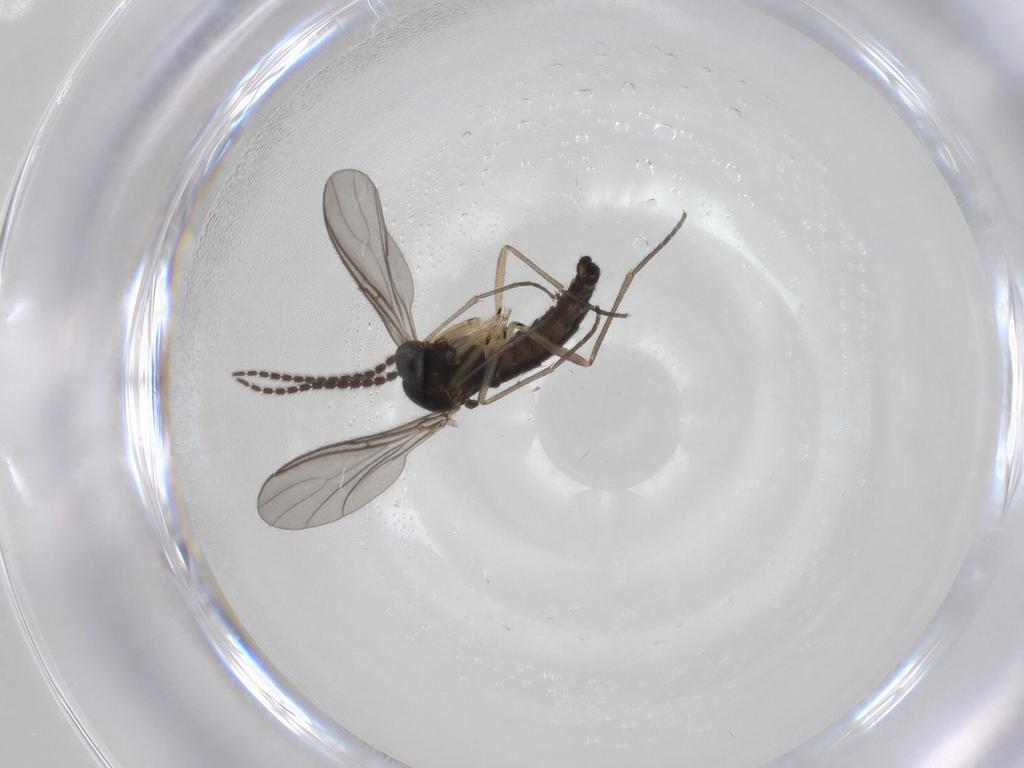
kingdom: Animalia
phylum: Arthropoda
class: Insecta
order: Diptera
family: Sciaridae
